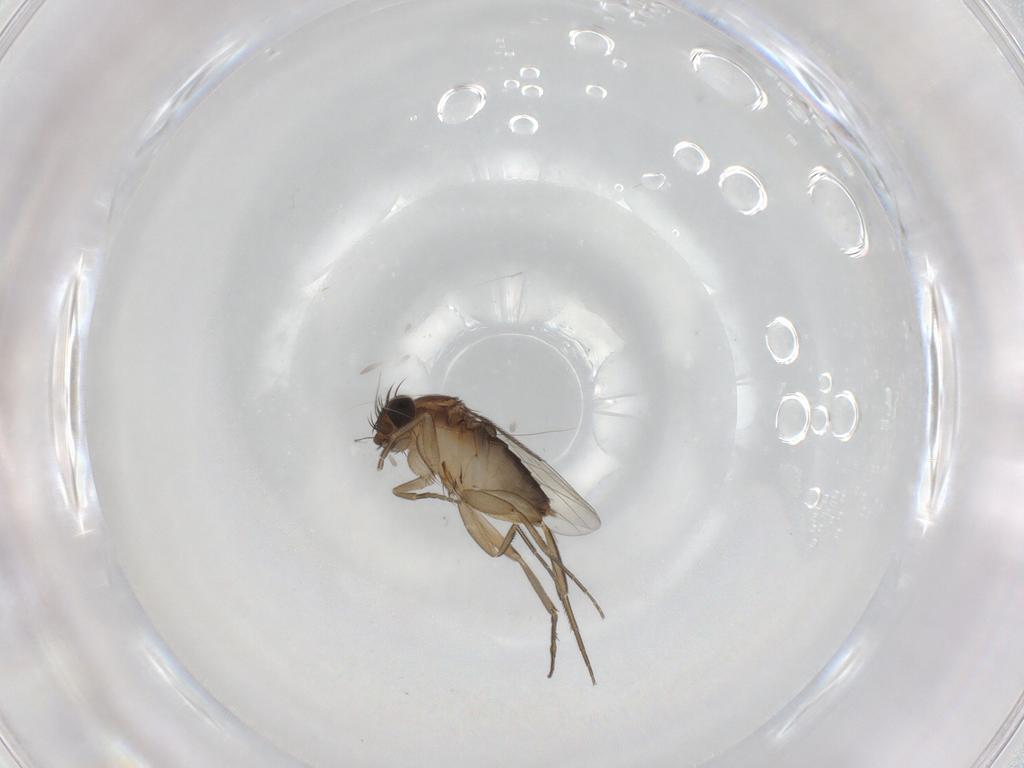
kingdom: Animalia
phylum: Arthropoda
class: Insecta
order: Diptera
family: Phoridae
